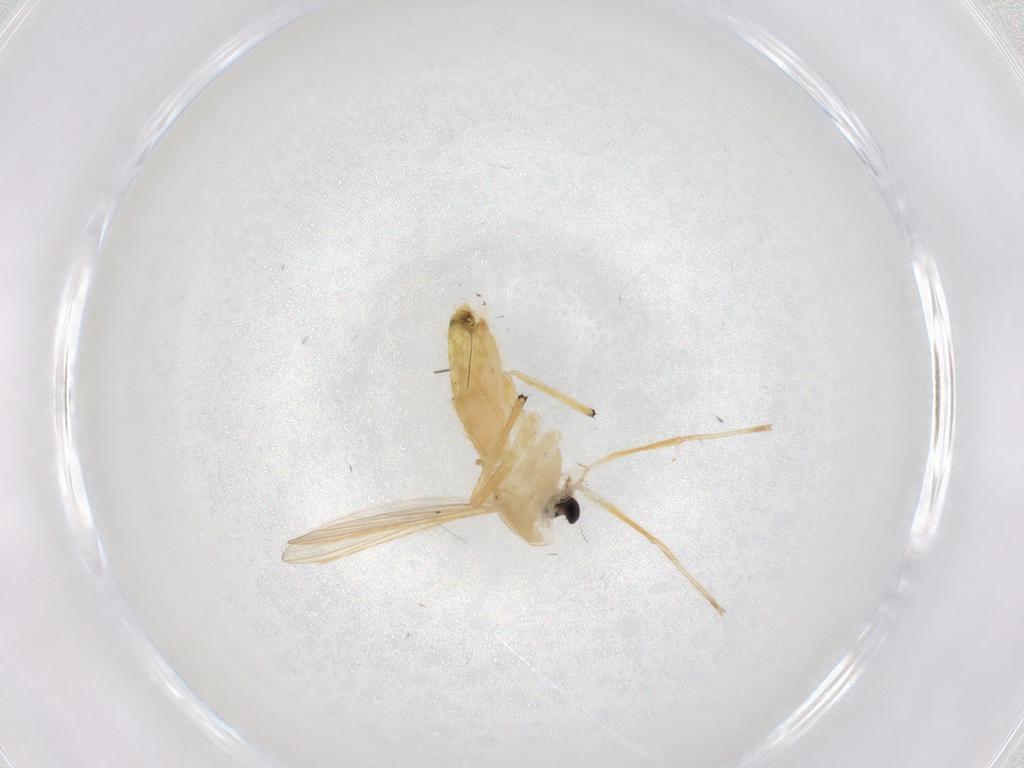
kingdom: Animalia
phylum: Arthropoda
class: Insecta
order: Diptera
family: Chironomidae
